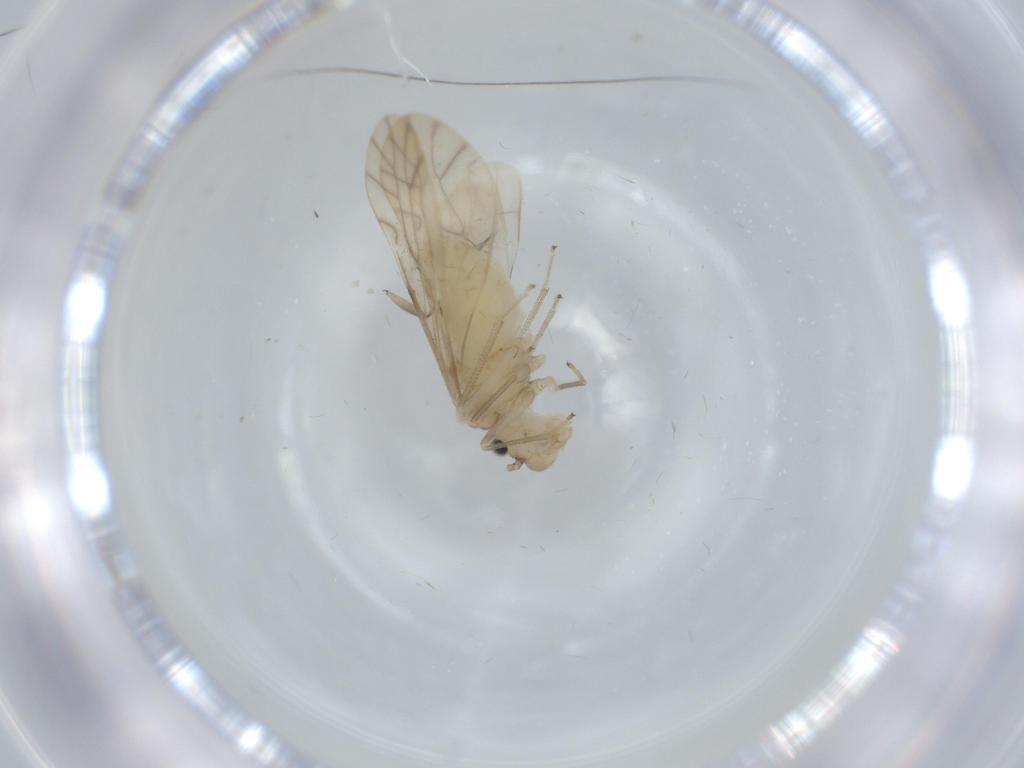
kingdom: Animalia
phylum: Arthropoda
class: Insecta
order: Psocodea
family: Caeciliusidae
